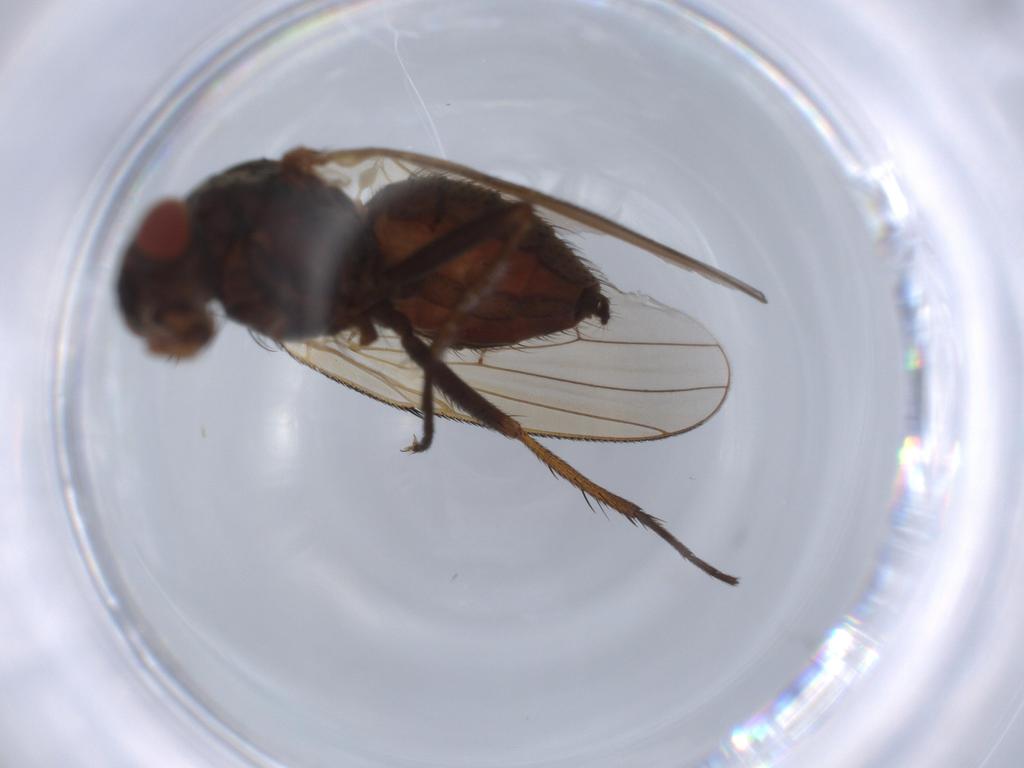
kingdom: Animalia
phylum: Arthropoda
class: Insecta
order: Diptera
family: Anthomyiidae
